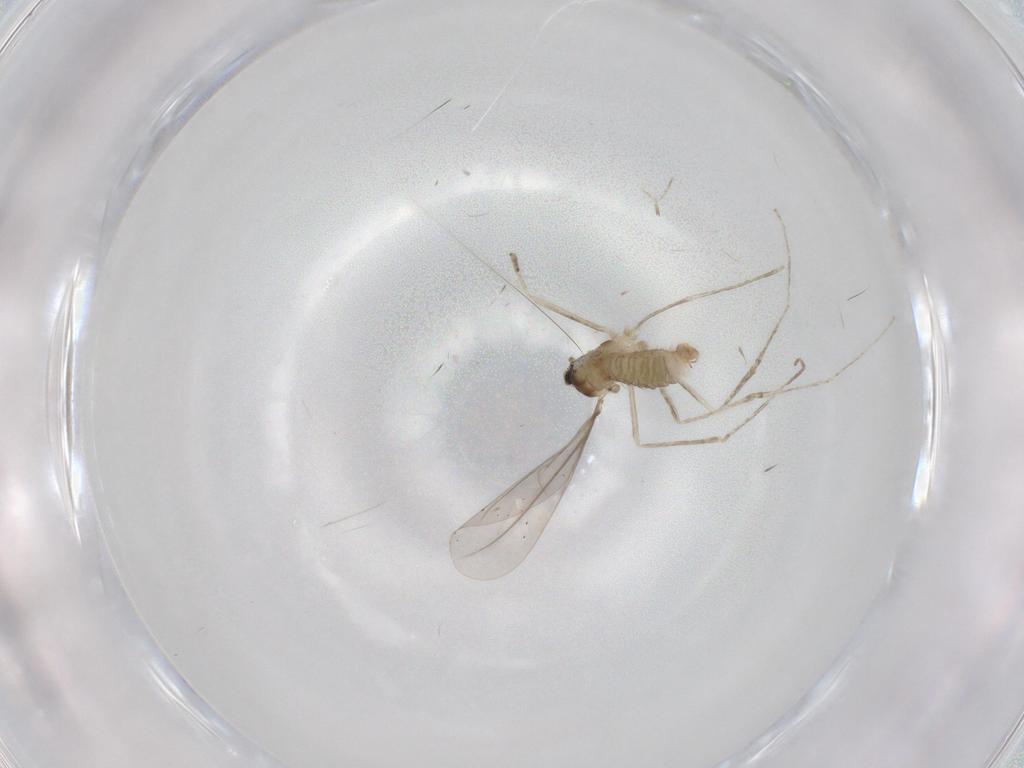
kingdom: Animalia
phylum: Arthropoda
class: Insecta
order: Diptera
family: Cecidomyiidae
